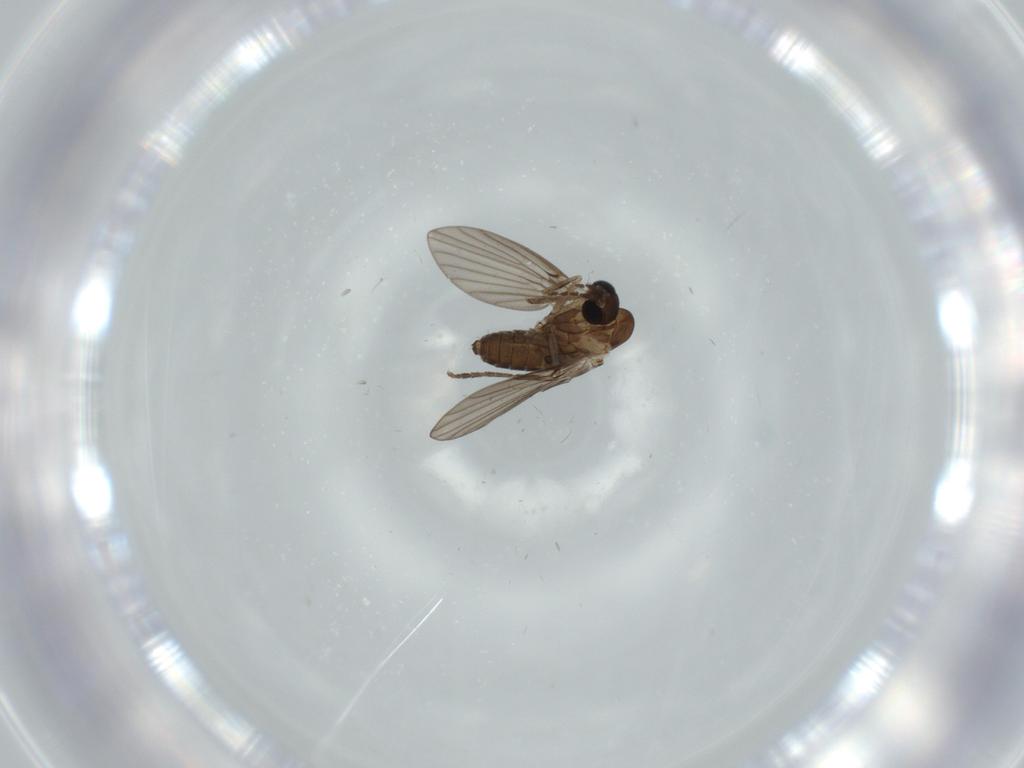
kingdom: Animalia
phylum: Arthropoda
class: Insecta
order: Diptera
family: Psychodidae
